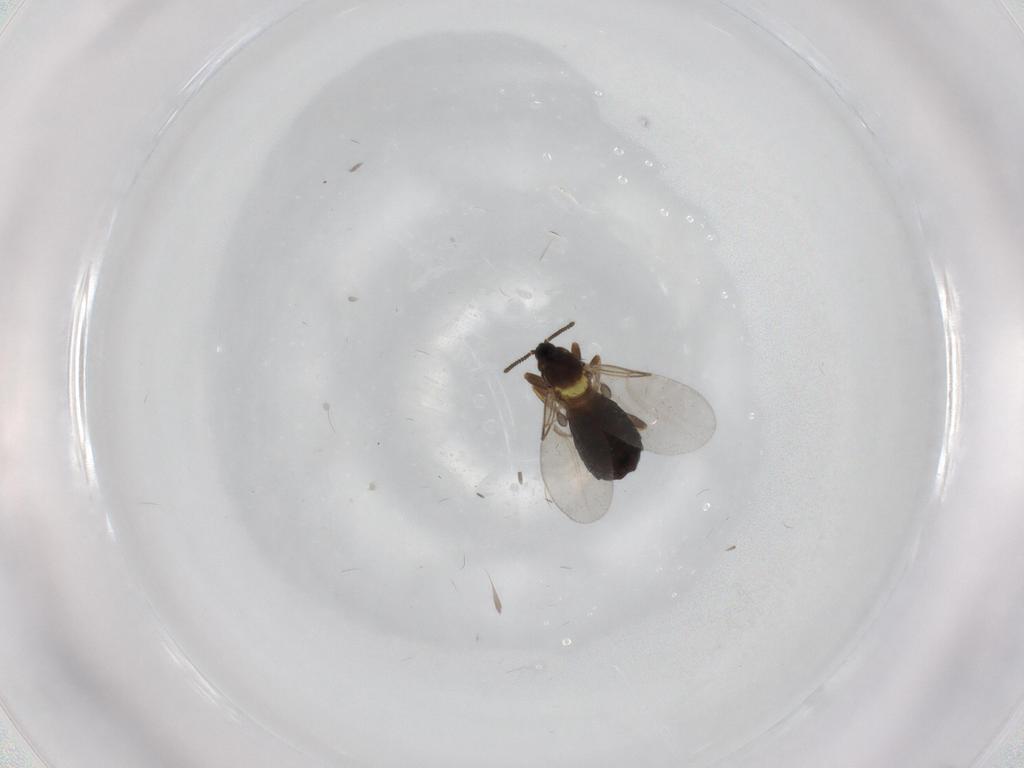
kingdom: Animalia
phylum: Arthropoda
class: Insecta
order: Diptera
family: Scatopsidae
